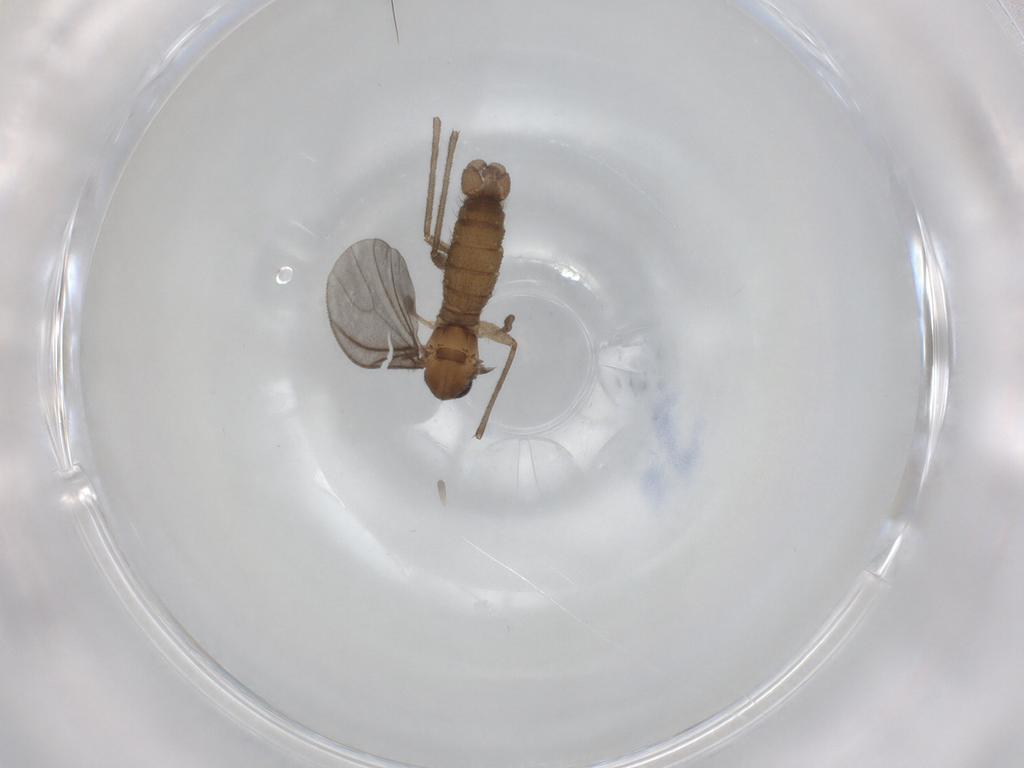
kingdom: Animalia
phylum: Arthropoda
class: Insecta
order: Diptera
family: Sciaridae
